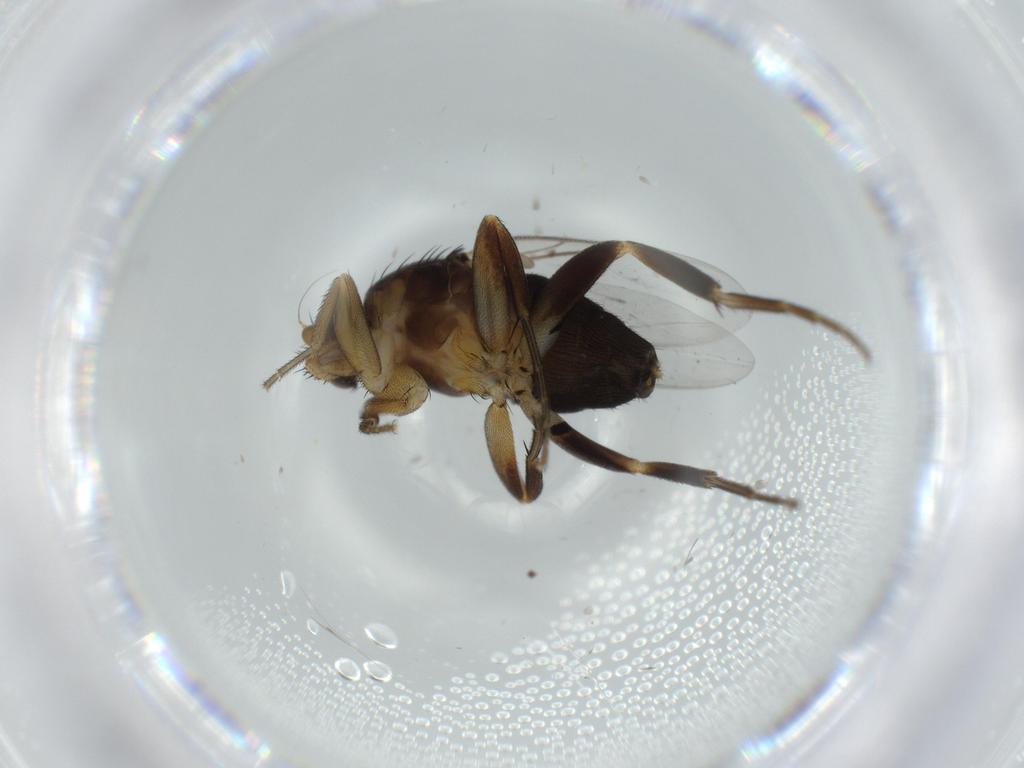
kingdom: Animalia
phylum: Arthropoda
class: Insecta
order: Diptera
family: Phoridae
